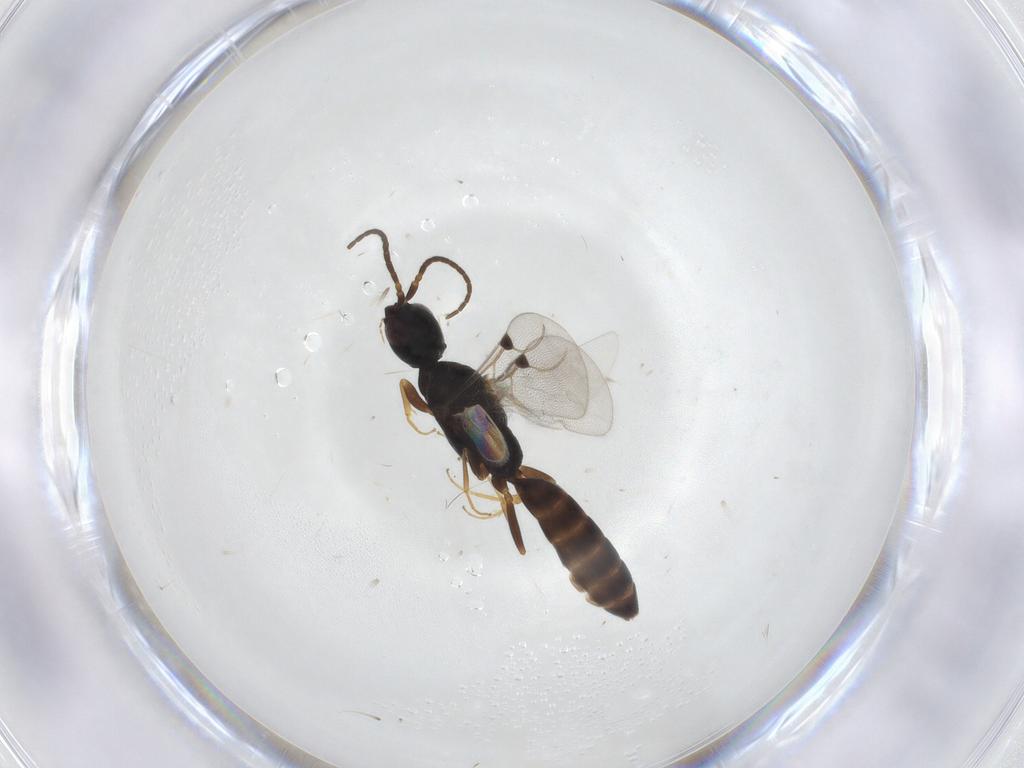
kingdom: Animalia
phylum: Arthropoda
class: Insecta
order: Hymenoptera
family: Bethylidae
